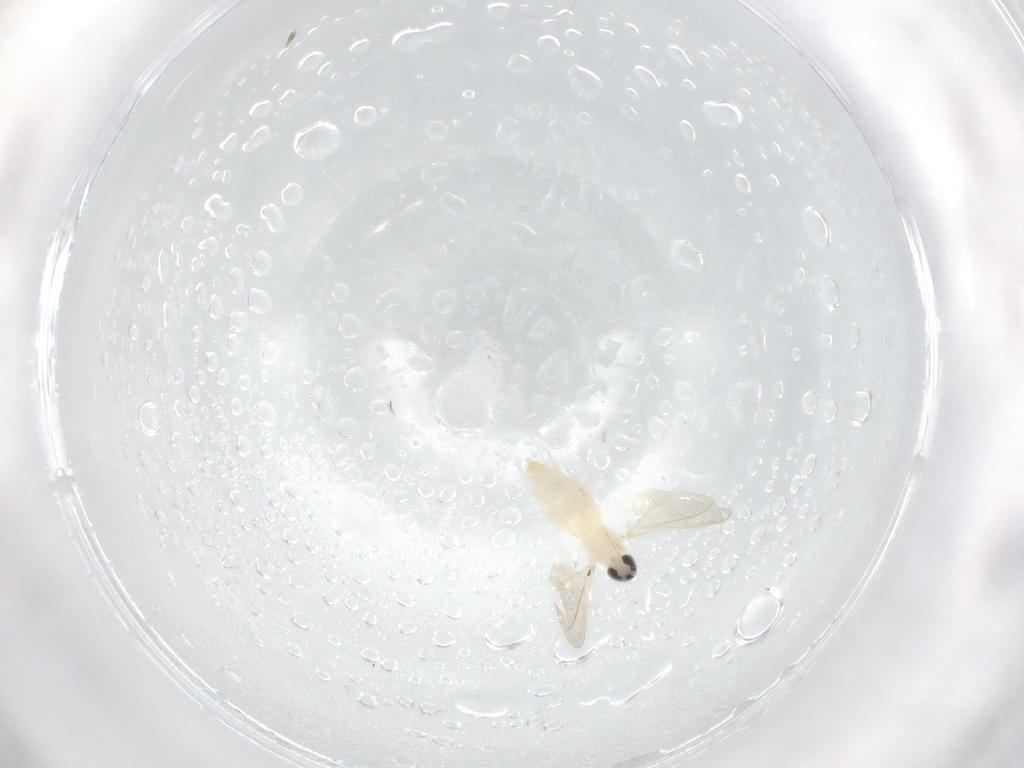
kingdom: Animalia
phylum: Arthropoda
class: Insecta
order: Diptera
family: Cecidomyiidae
